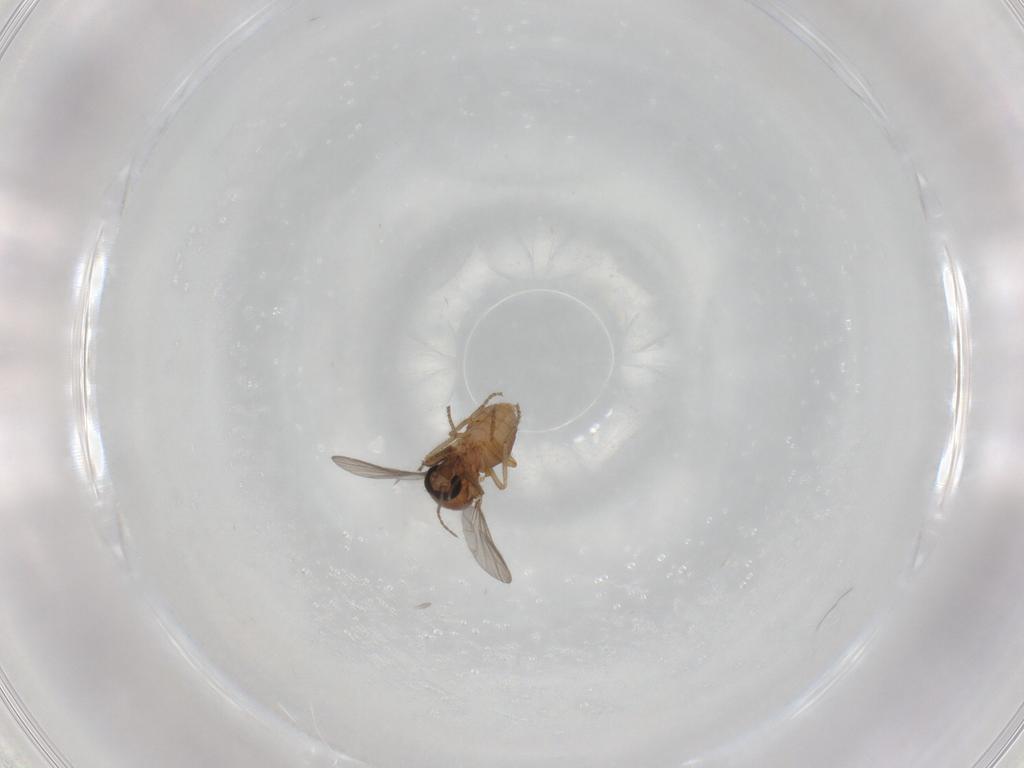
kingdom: Animalia
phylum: Arthropoda
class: Insecta
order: Diptera
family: Ceratopogonidae
